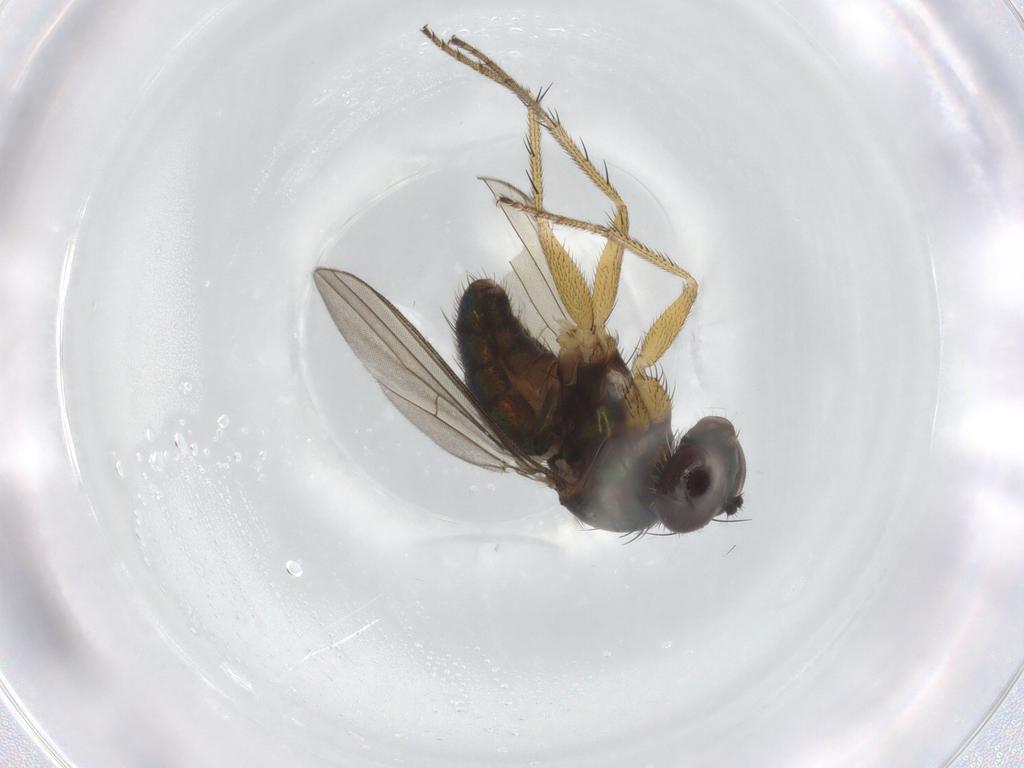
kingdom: Animalia
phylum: Arthropoda
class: Insecta
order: Diptera
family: Dolichopodidae
